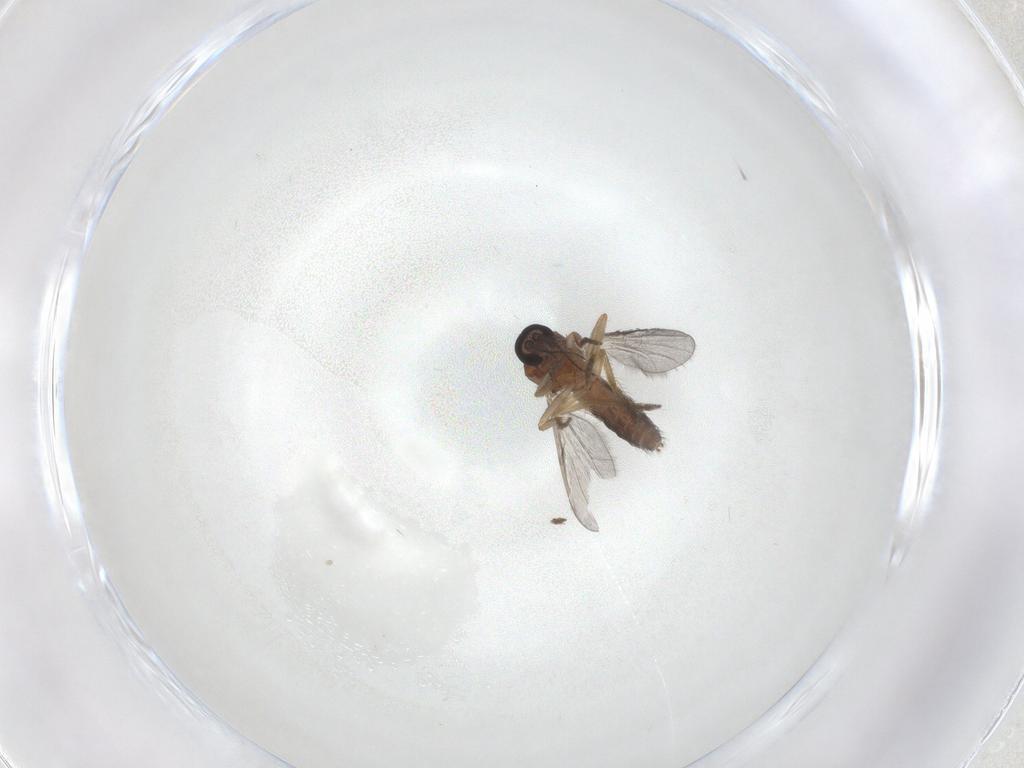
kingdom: Animalia
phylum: Arthropoda
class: Insecta
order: Diptera
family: Ceratopogonidae
